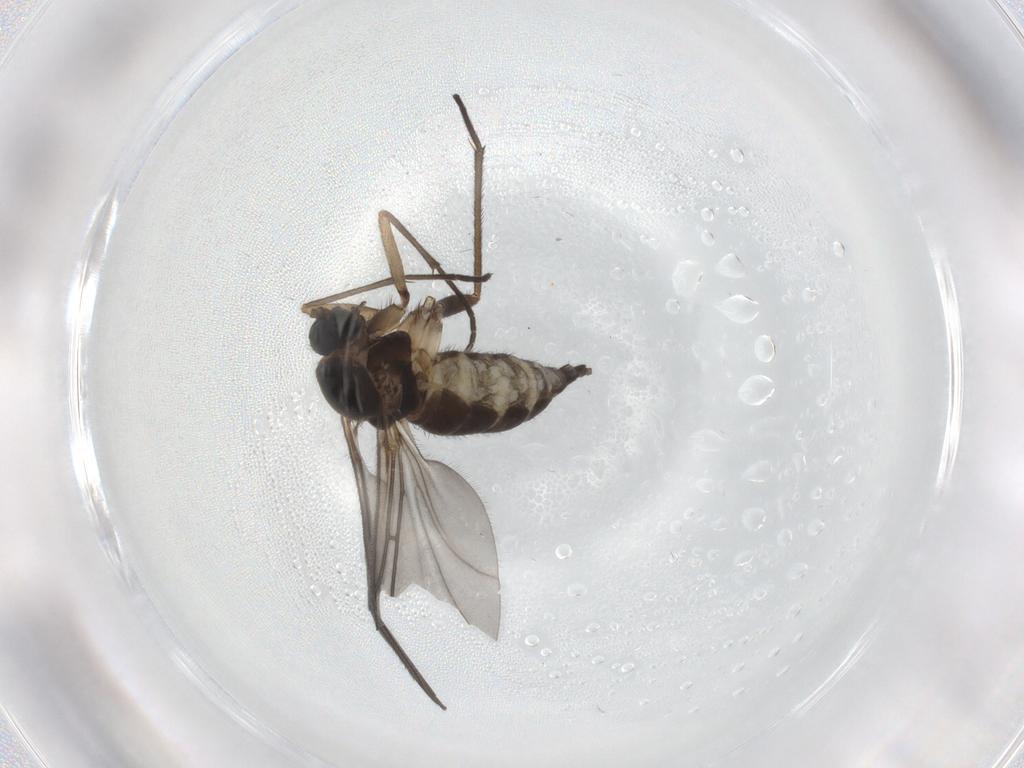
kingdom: Animalia
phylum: Arthropoda
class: Insecta
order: Diptera
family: Sciaridae
